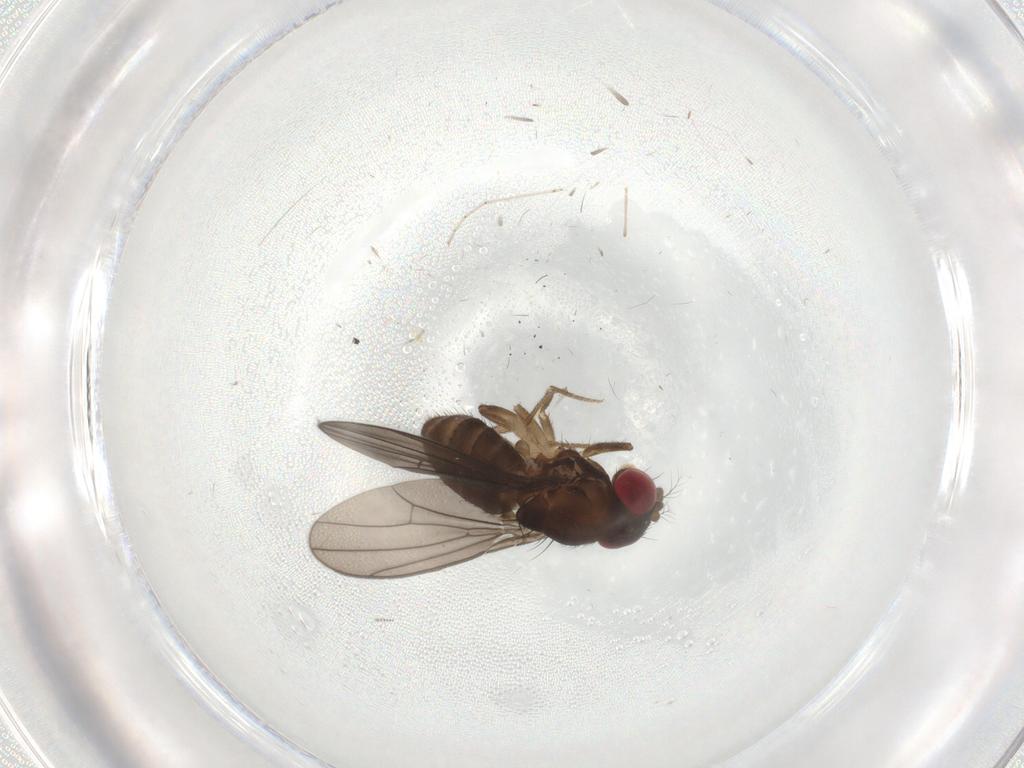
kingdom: Animalia
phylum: Arthropoda
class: Insecta
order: Diptera
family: Drosophilidae
